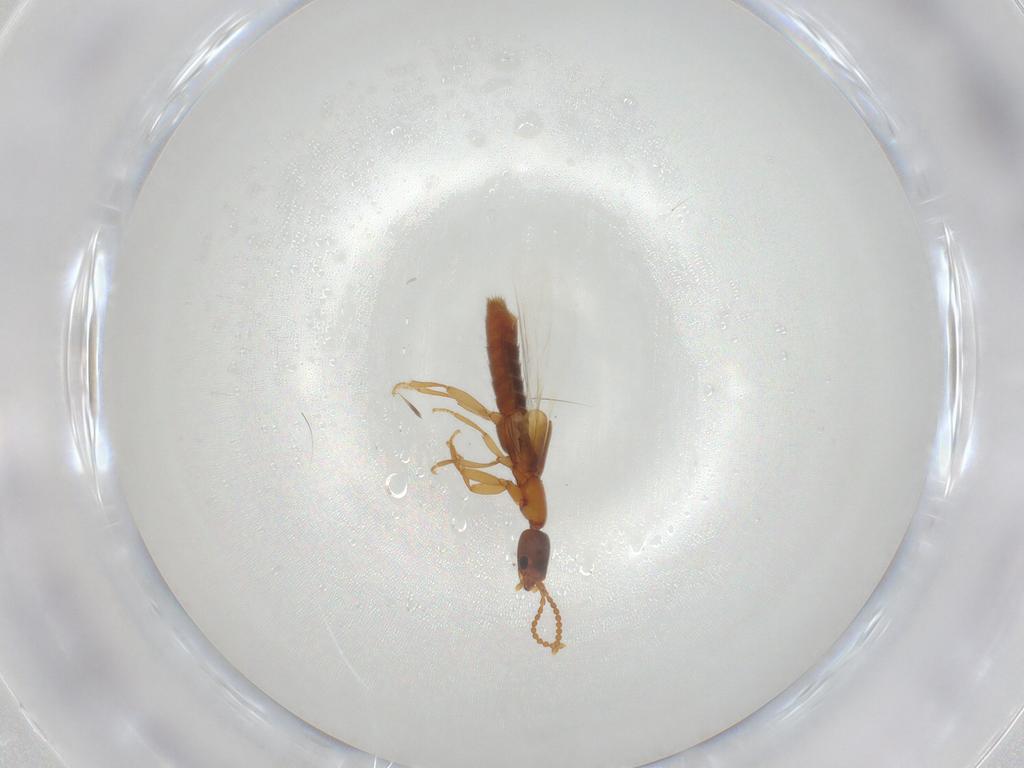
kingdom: Animalia
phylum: Arthropoda
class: Insecta
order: Coleoptera
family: Staphylinidae
